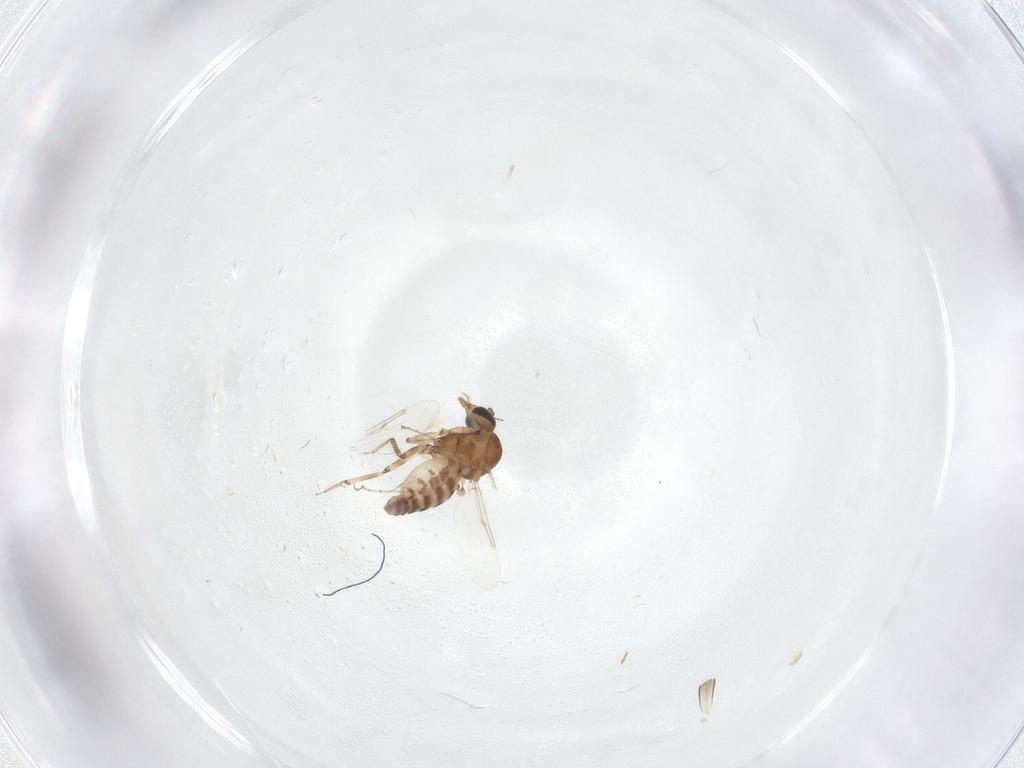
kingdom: Animalia
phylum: Arthropoda
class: Insecta
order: Diptera
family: Ceratopogonidae
